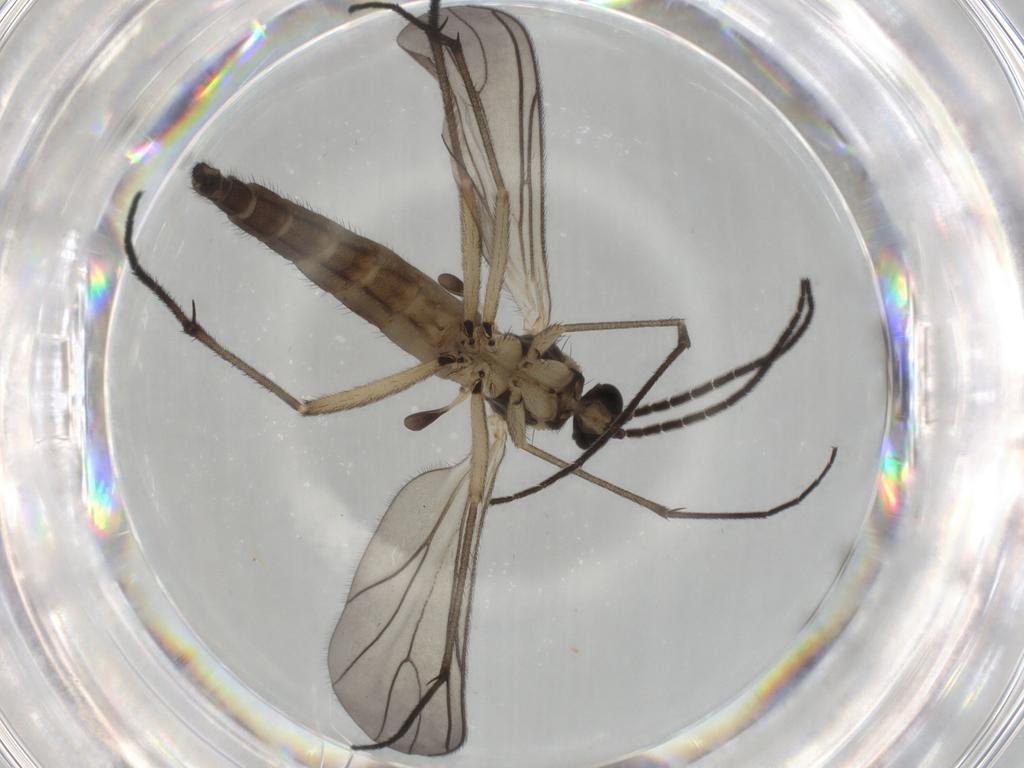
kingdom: Animalia
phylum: Arthropoda
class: Insecta
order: Diptera
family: Sciaridae
